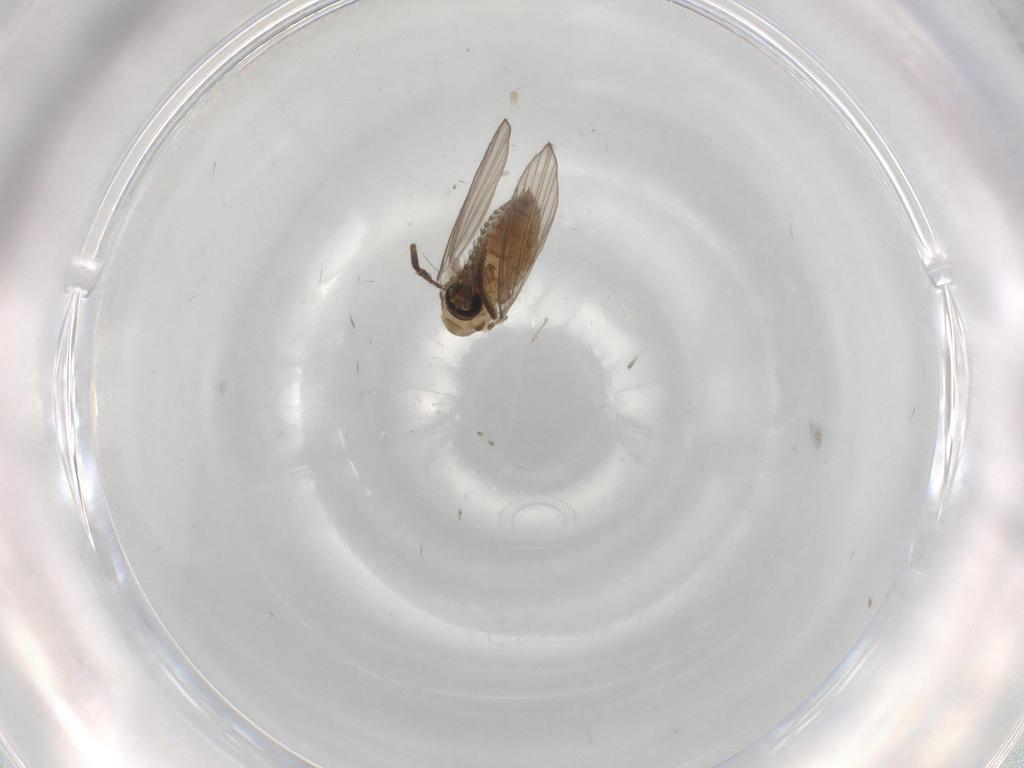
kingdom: Animalia
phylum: Arthropoda
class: Insecta
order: Diptera
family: Psychodidae
